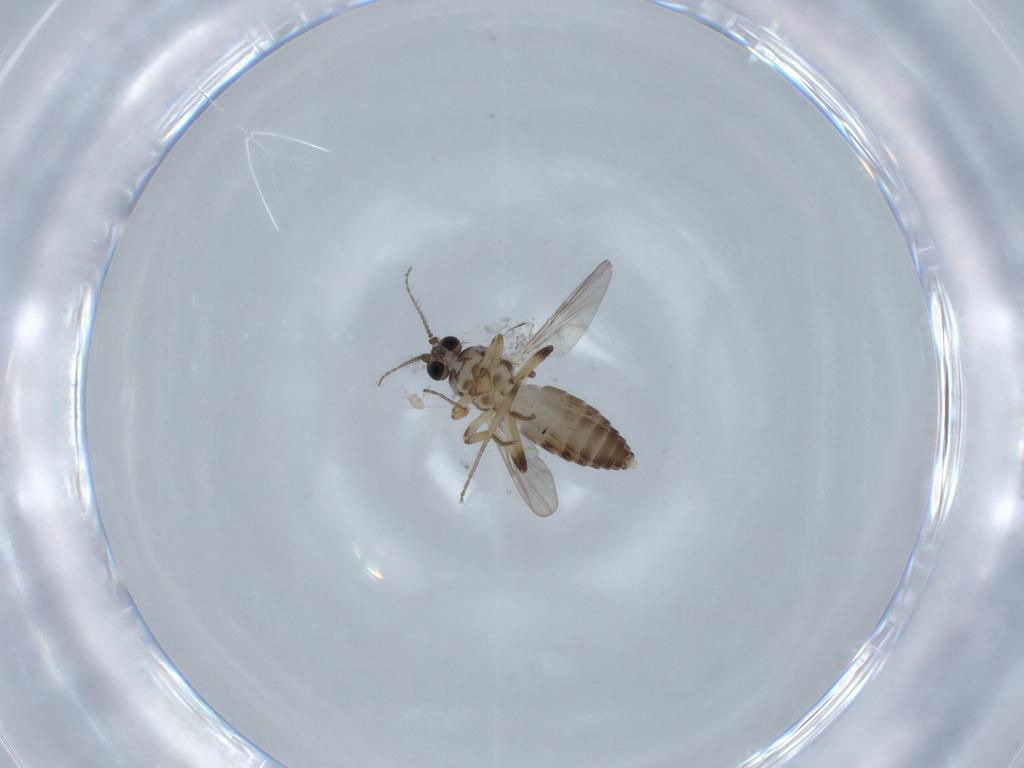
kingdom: Animalia
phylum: Arthropoda
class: Insecta
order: Diptera
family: Ceratopogonidae
